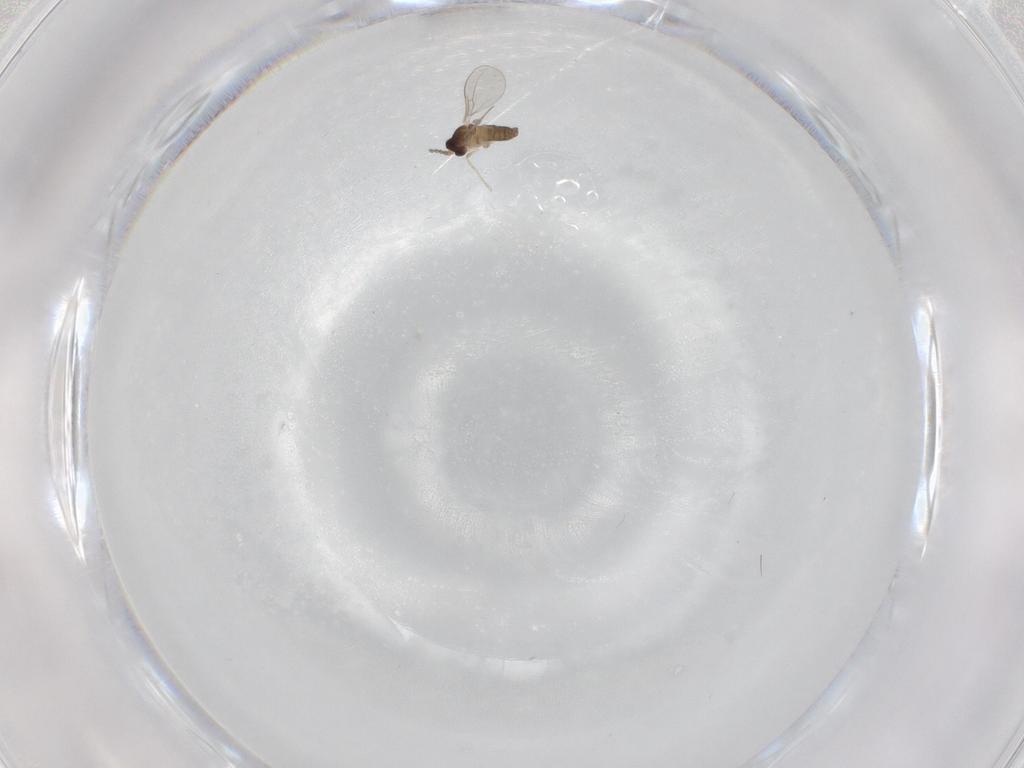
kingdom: Animalia
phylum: Arthropoda
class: Insecta
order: Diptera
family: Cecidomyiidae
